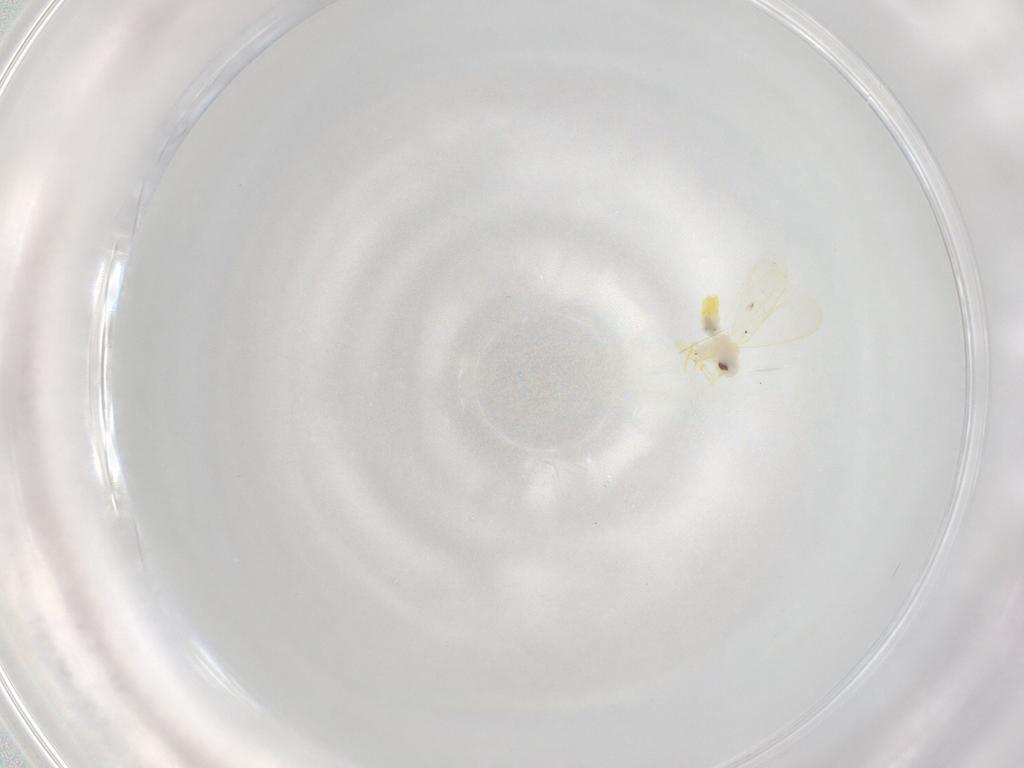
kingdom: Animalia
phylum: Arthropoda
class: Insecta
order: Hemiptera
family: Aleyrodidae
